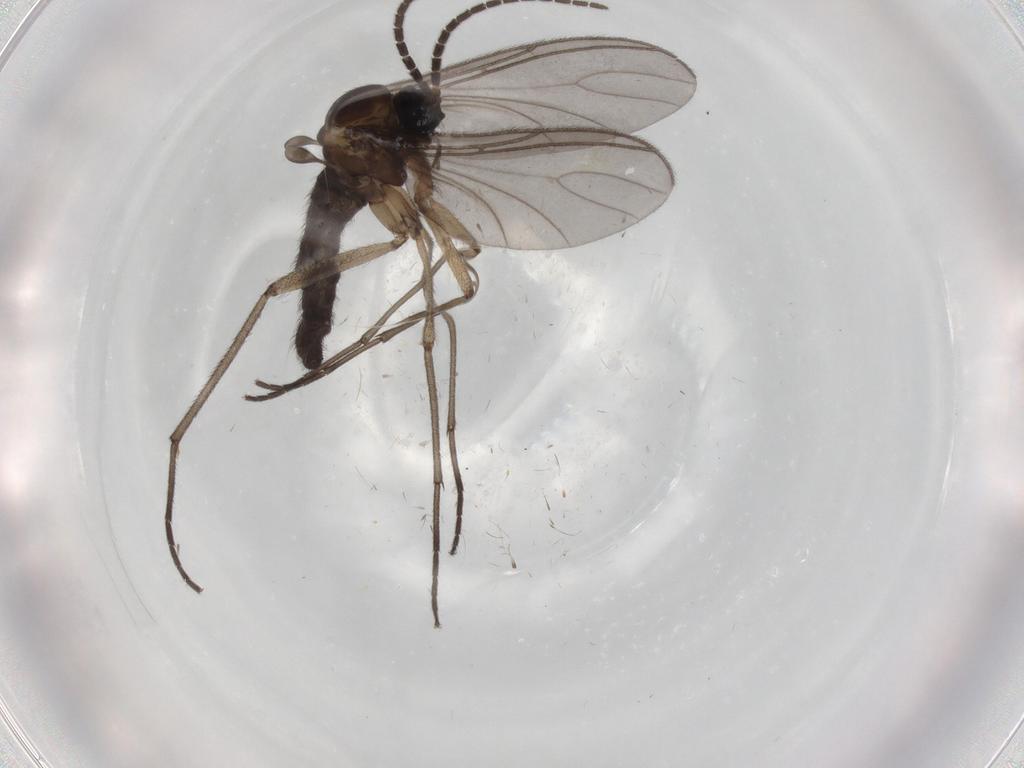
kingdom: Animalia
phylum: Arthropoda
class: Insecta
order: Diptera
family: Sciaridae
